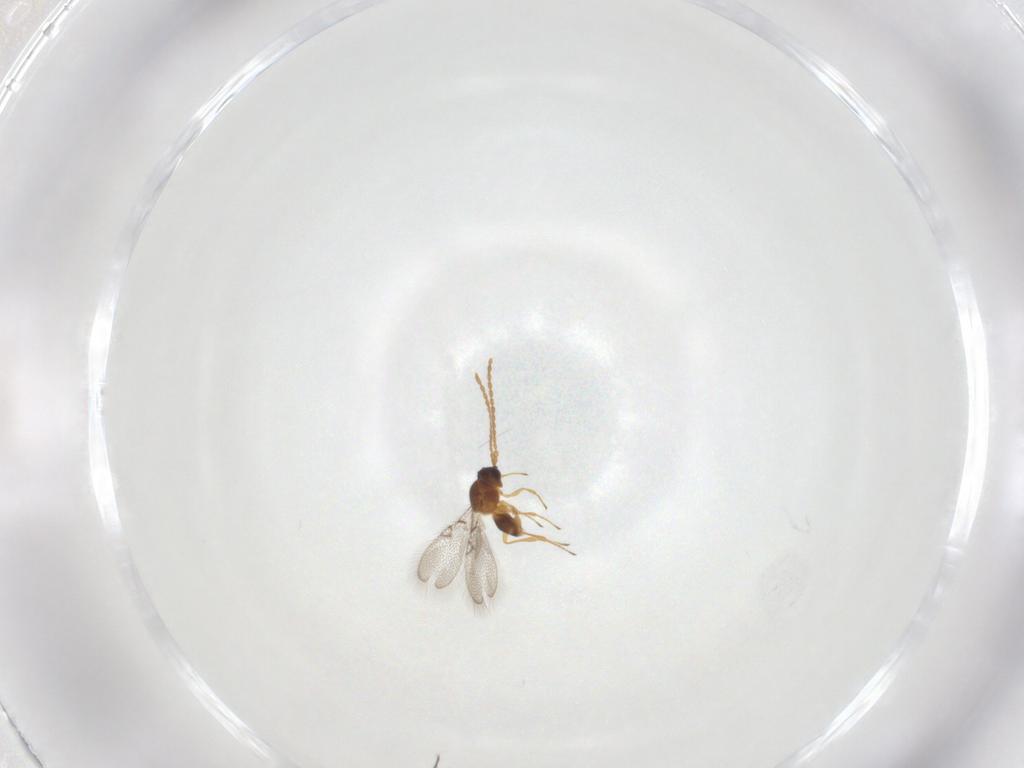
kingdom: Animalia
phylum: Arthropoda
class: Insecta
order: Hymenoptera
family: Figitidae
